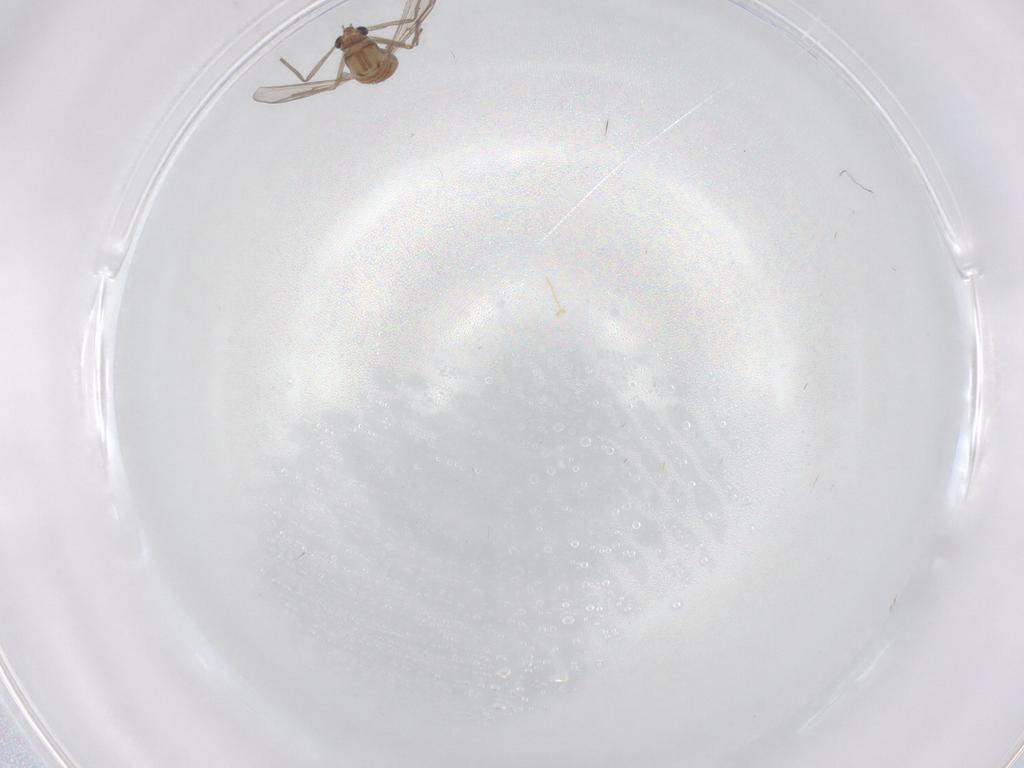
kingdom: Animalia
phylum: Arthropoda
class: Insecta
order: Diptera
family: Chironomidae
